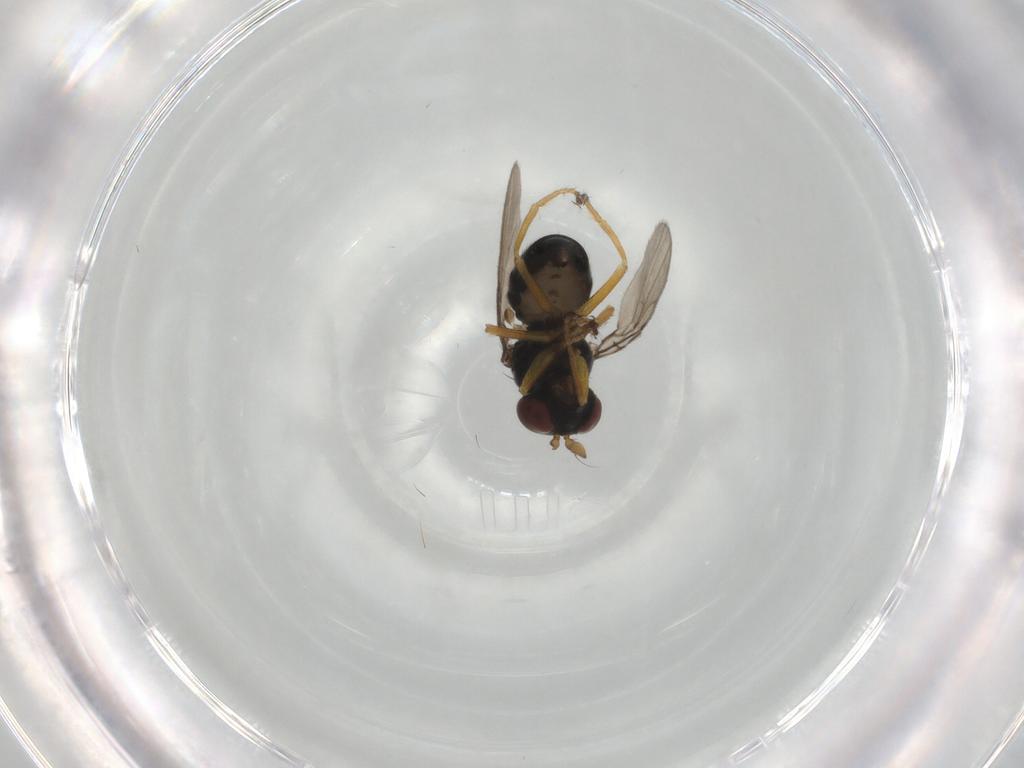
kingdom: Animalia
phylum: Arthropoda
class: Insecta
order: Diptera
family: Ephydridae
